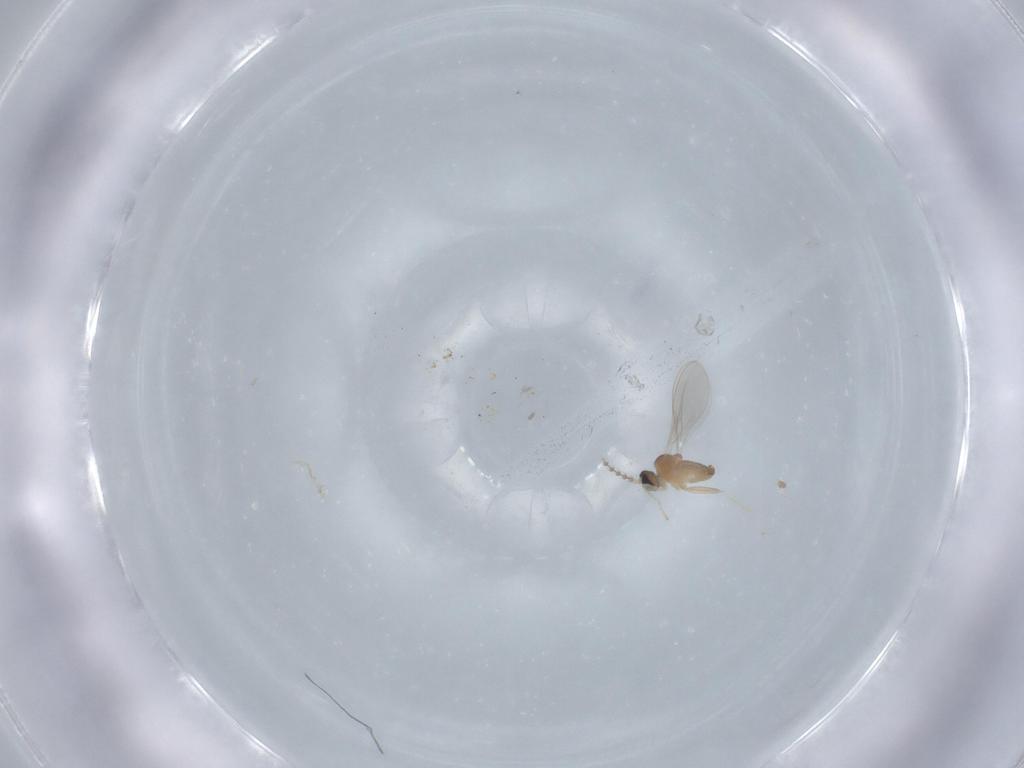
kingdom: Animalia
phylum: Arthropoda
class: Insecta
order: Diptera
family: Cecidomyiidae
